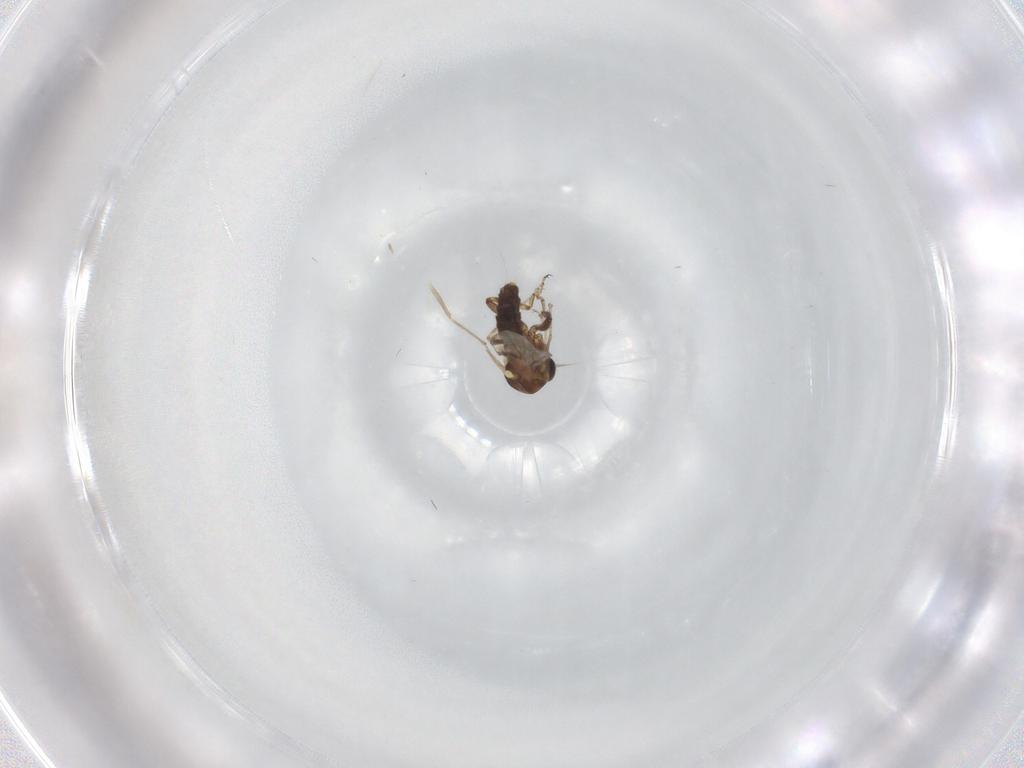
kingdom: Animalia
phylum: Arthropoda
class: Insecta
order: Diptera
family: Ceratopogonidae
